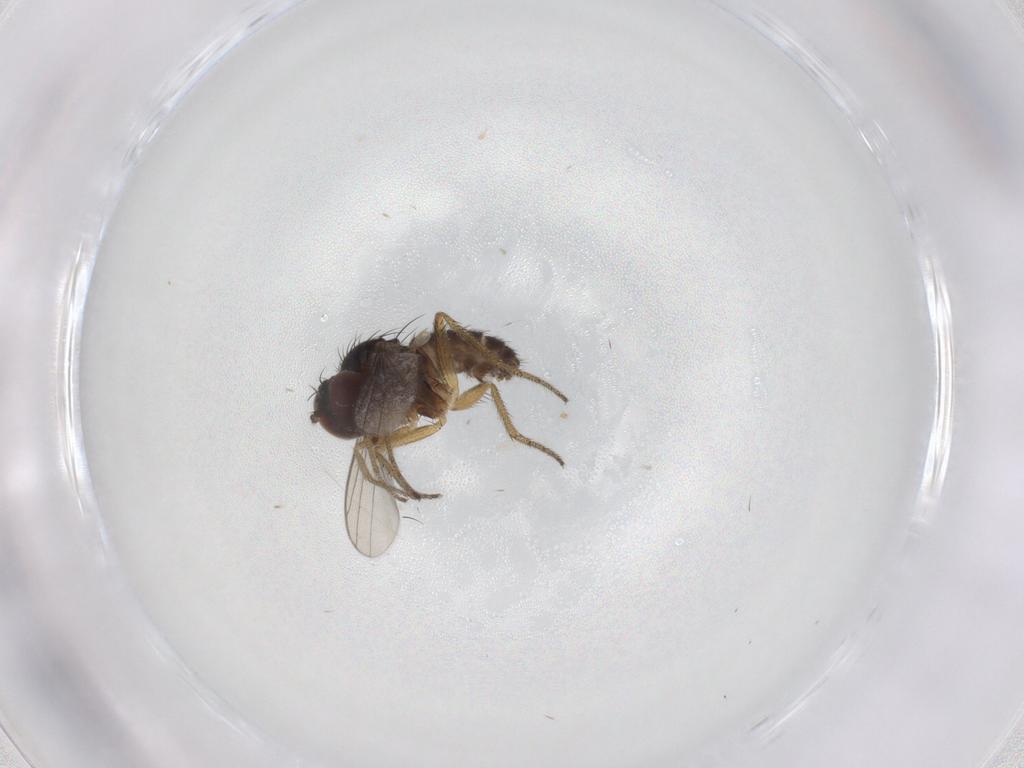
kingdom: Animalia
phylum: Arthropoda
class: Insecta
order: Diptera
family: Dolichopodidae
